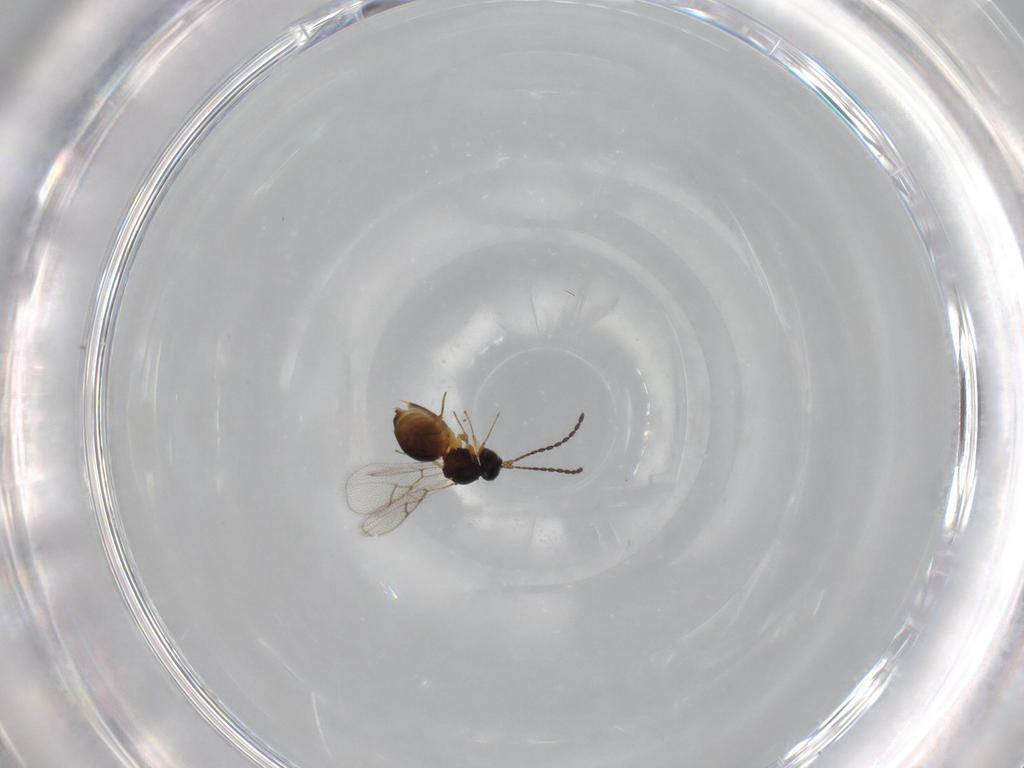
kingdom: Animalia
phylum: Arthropoda
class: Insecta
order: Hymenoptera
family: Figitidae
